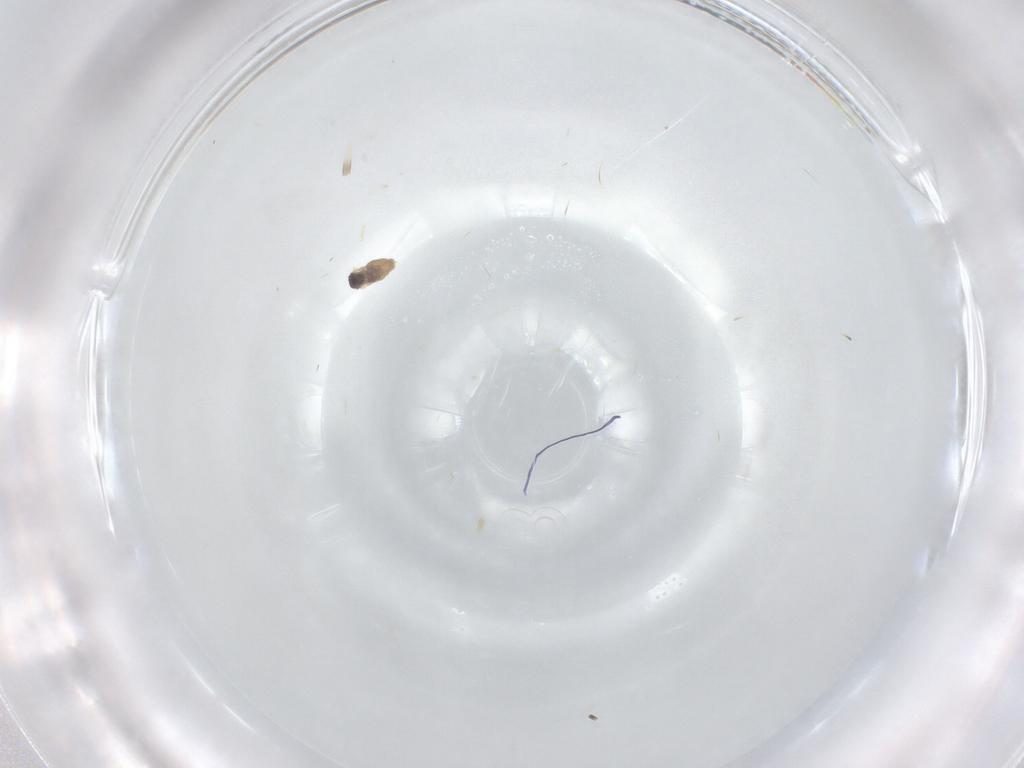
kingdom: Animalia
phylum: Arthropoda
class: Insecta
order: Diptera
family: Cecidomyiidae
